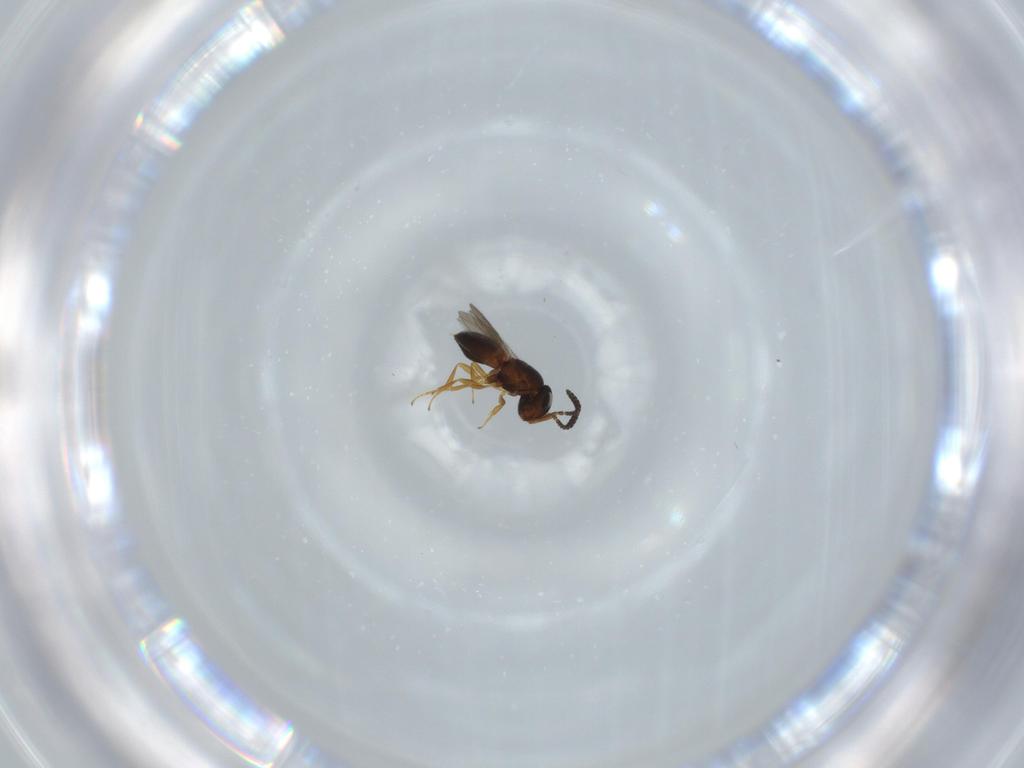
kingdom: Animalia
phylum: Arthropoda
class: Insecta
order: Hymenoptera
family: Scelionidae
